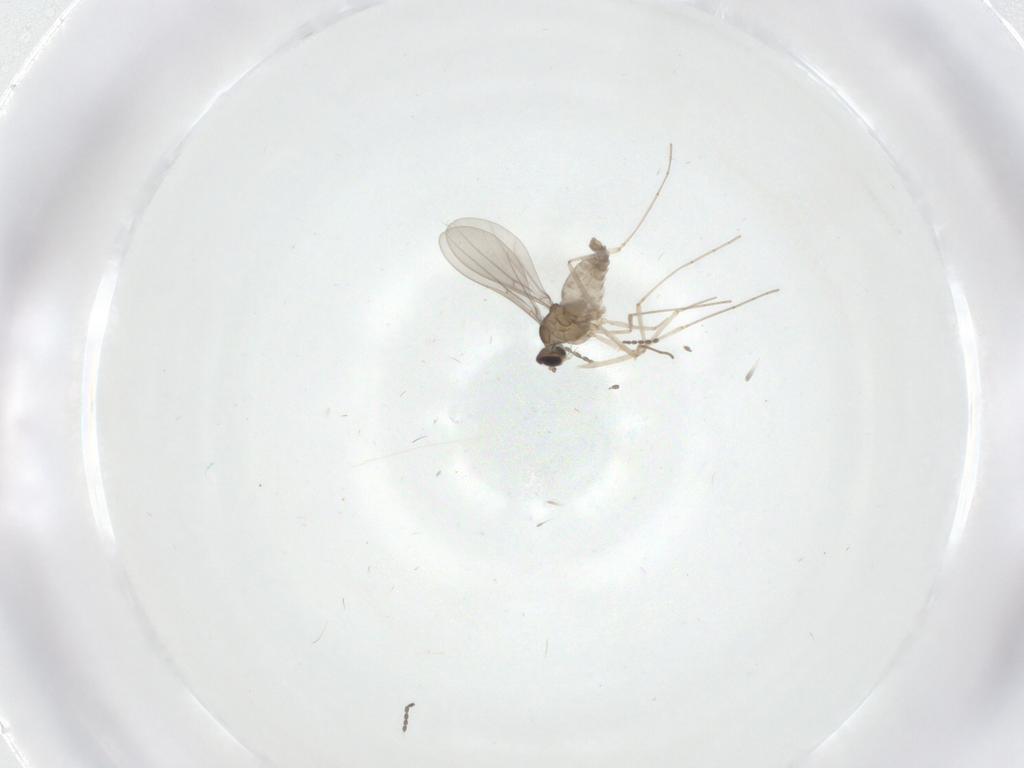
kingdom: Animalia
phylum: Arthropoda
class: Insecta
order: Diptera
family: Cecidomyiidae
